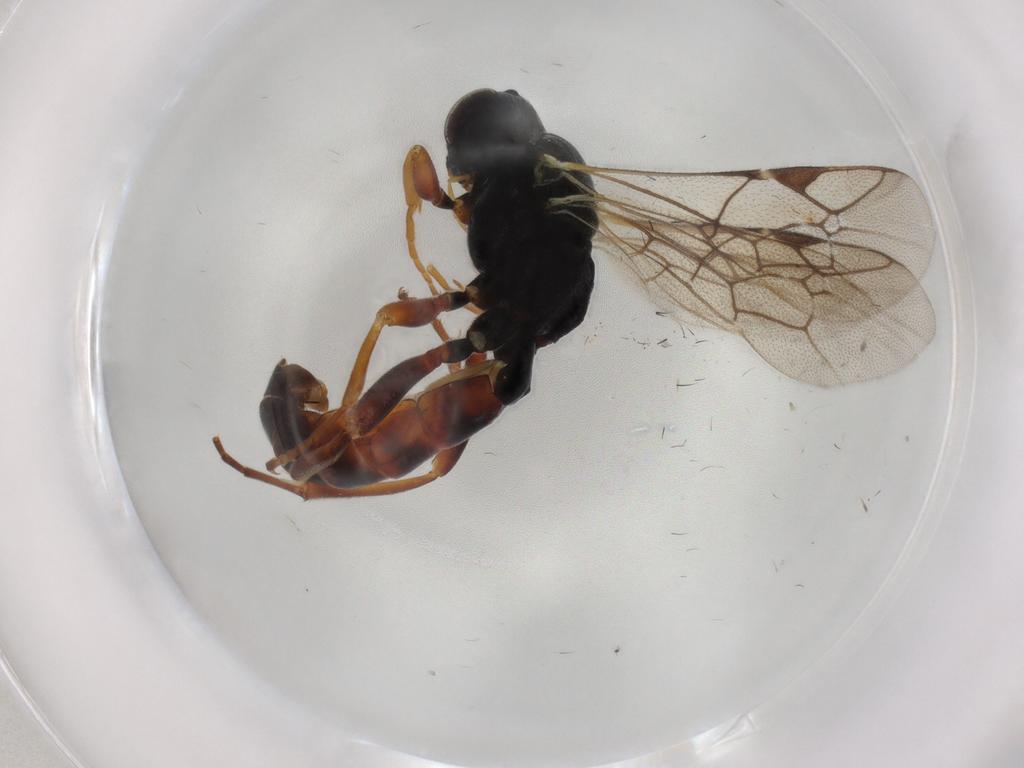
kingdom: Animalia
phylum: Arthropoda
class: Insecta
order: Hymenoptera
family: Ichneumonidae
